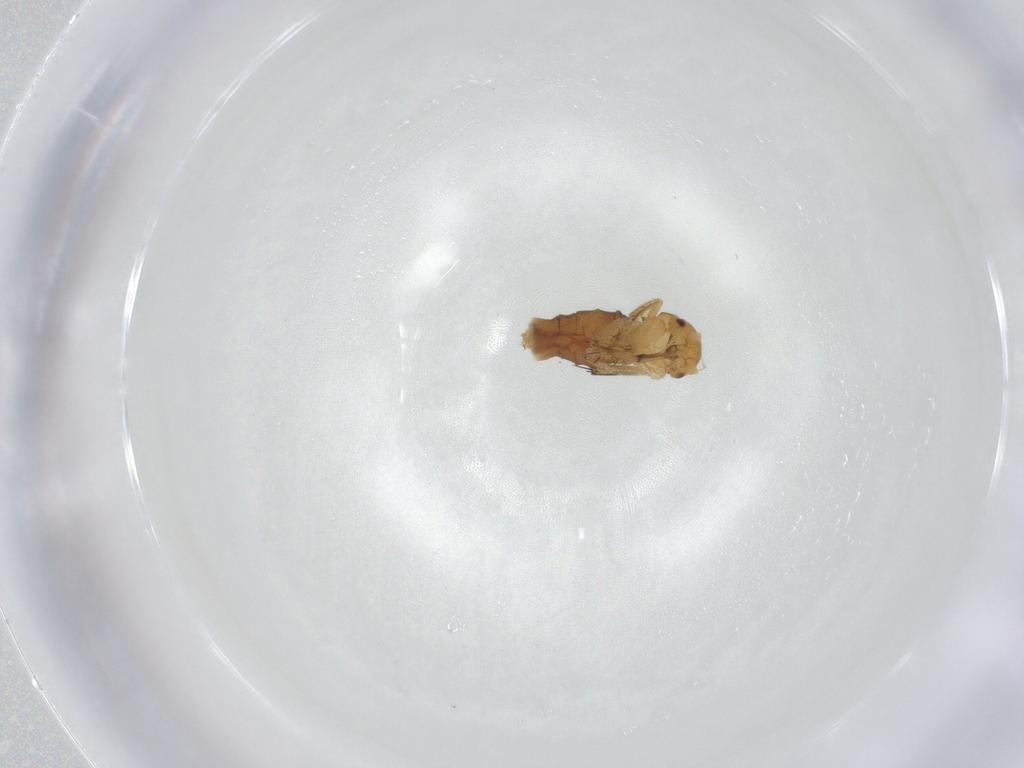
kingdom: Animalia
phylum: Arthropoda
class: Insecta
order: Diptera
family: Phoridae
